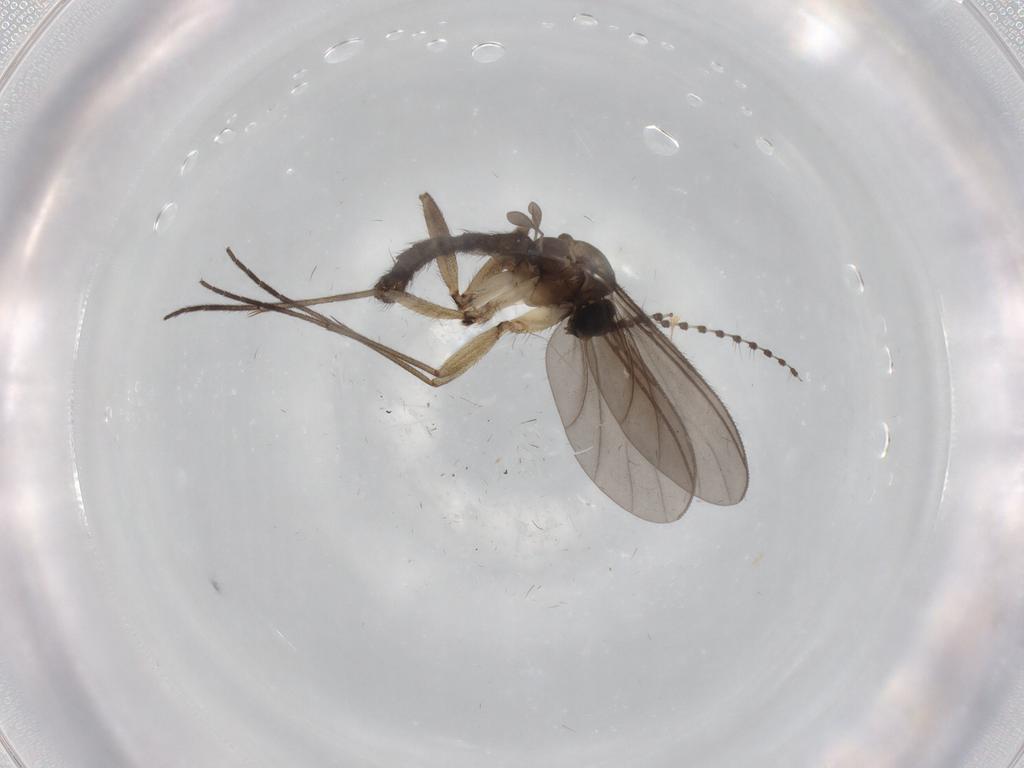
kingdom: Animalia
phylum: Arthropoda
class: Insecta
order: Diptera
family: Sciaridae
